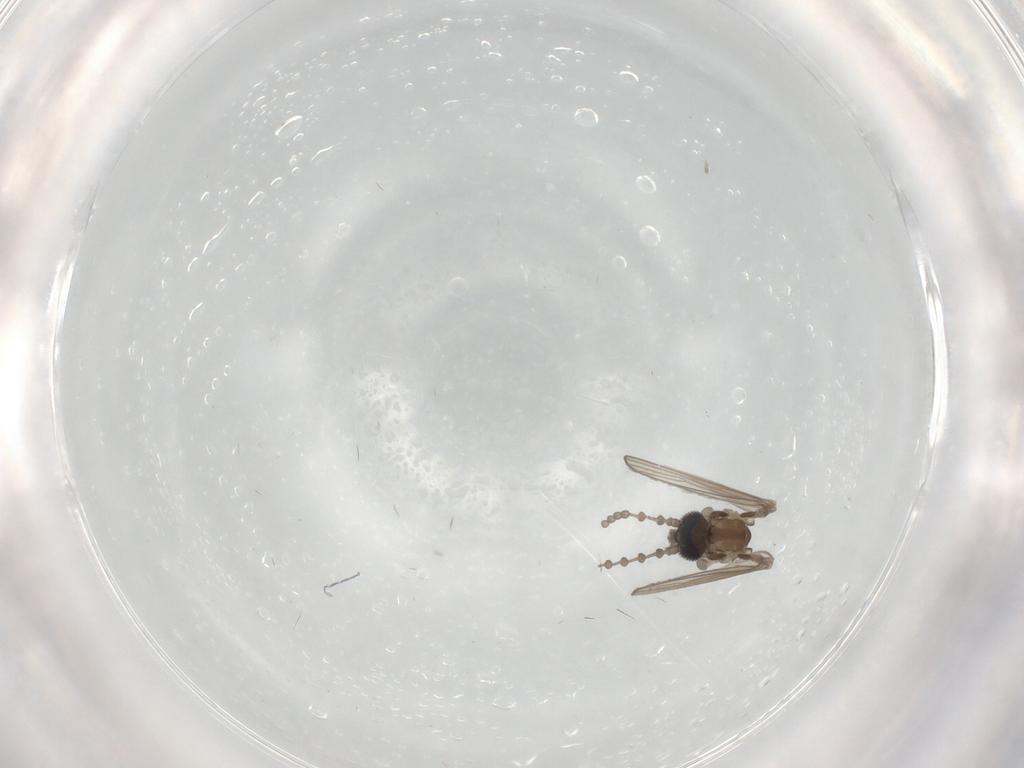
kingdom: Animalia
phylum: Arthropoda
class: Insecta
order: Diptera
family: Psychodidae
